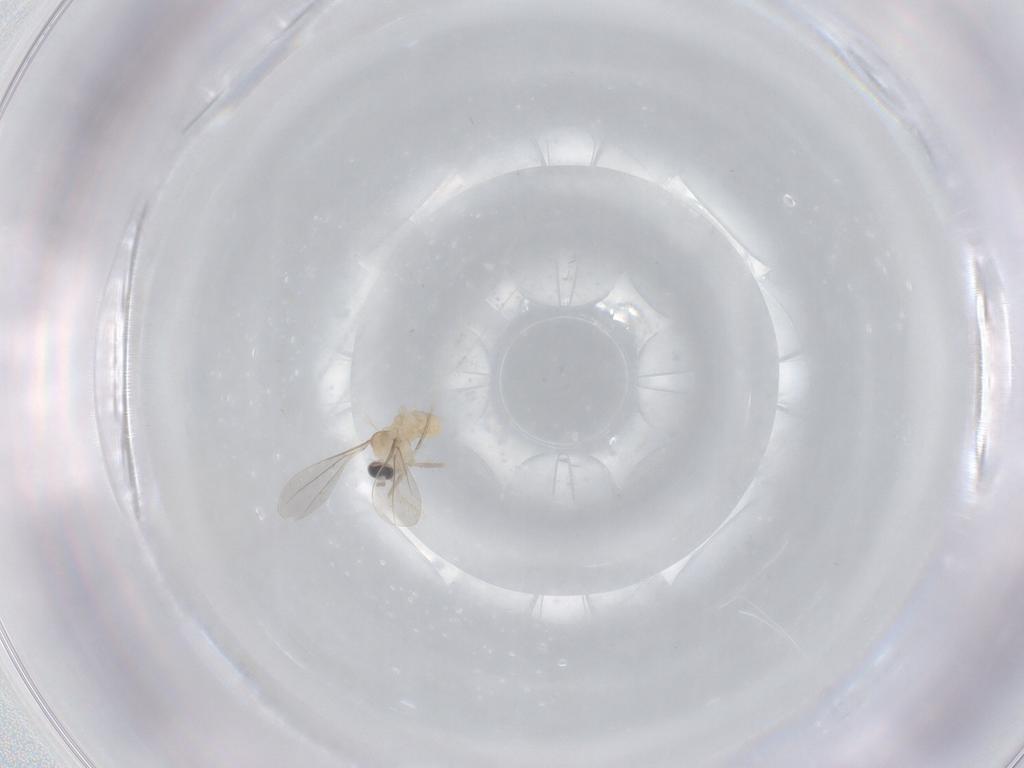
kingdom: Animalia
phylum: Arthropoda
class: Insecta
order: Diptera
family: Cecidomyiidae
